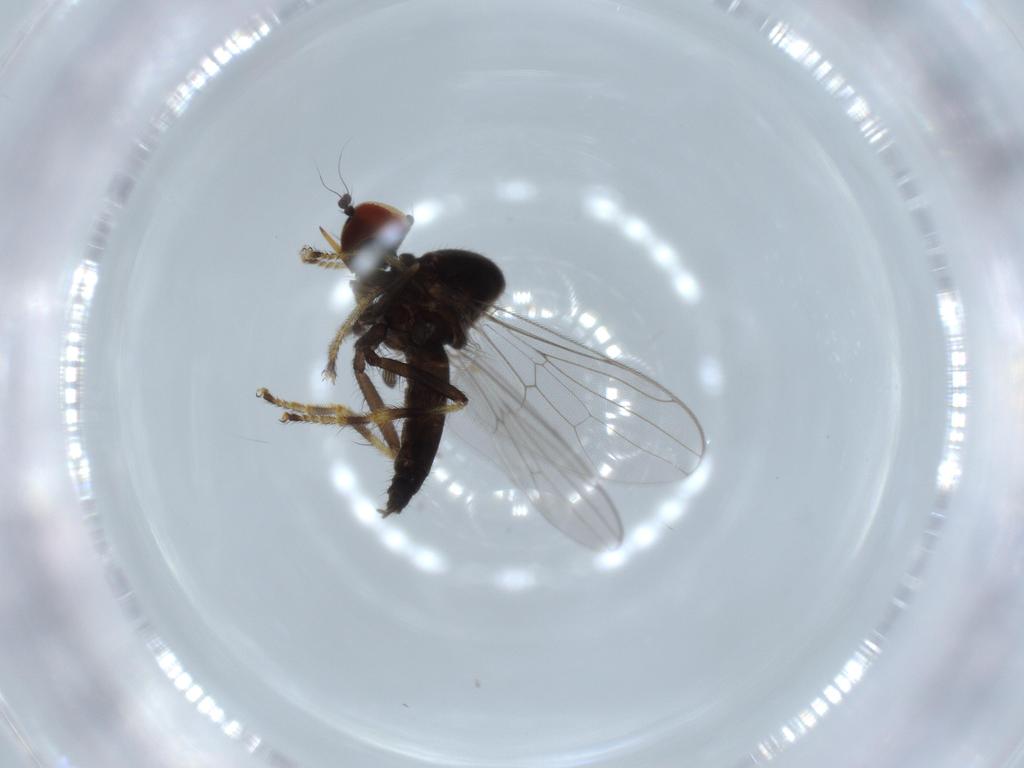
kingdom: Animalia
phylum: Arthropoda
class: Insecta
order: Diptera
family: Hybotidae
